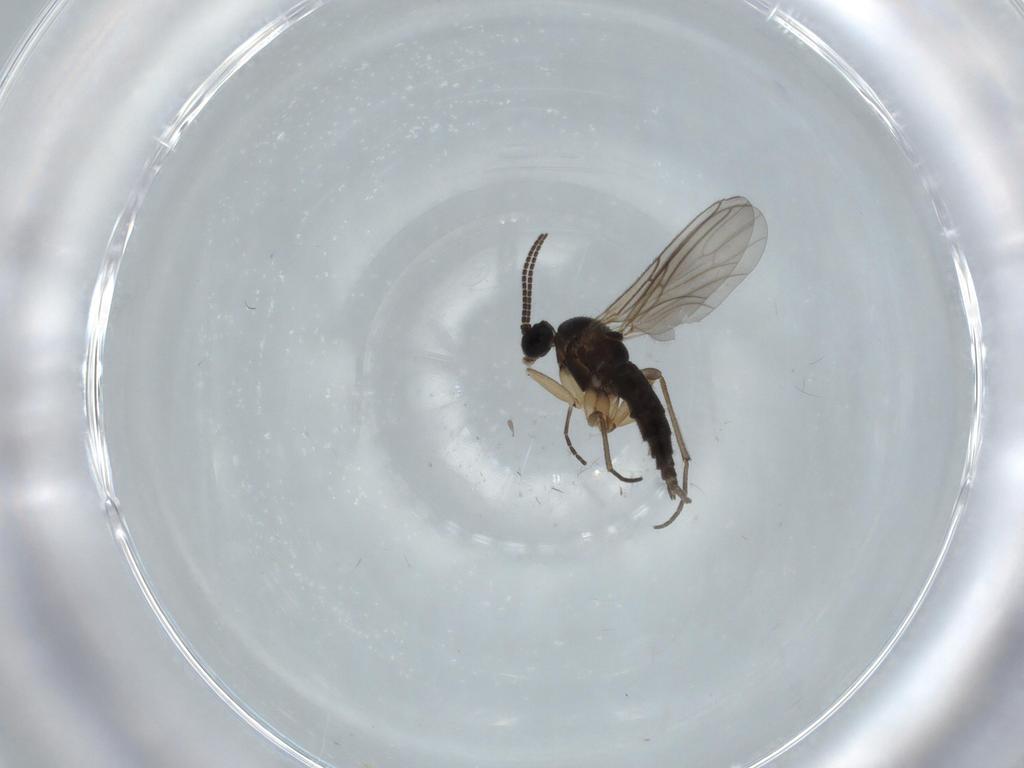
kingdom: Animalia
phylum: Arthropoda
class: Insecta
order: Diptera
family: Sciaridae
